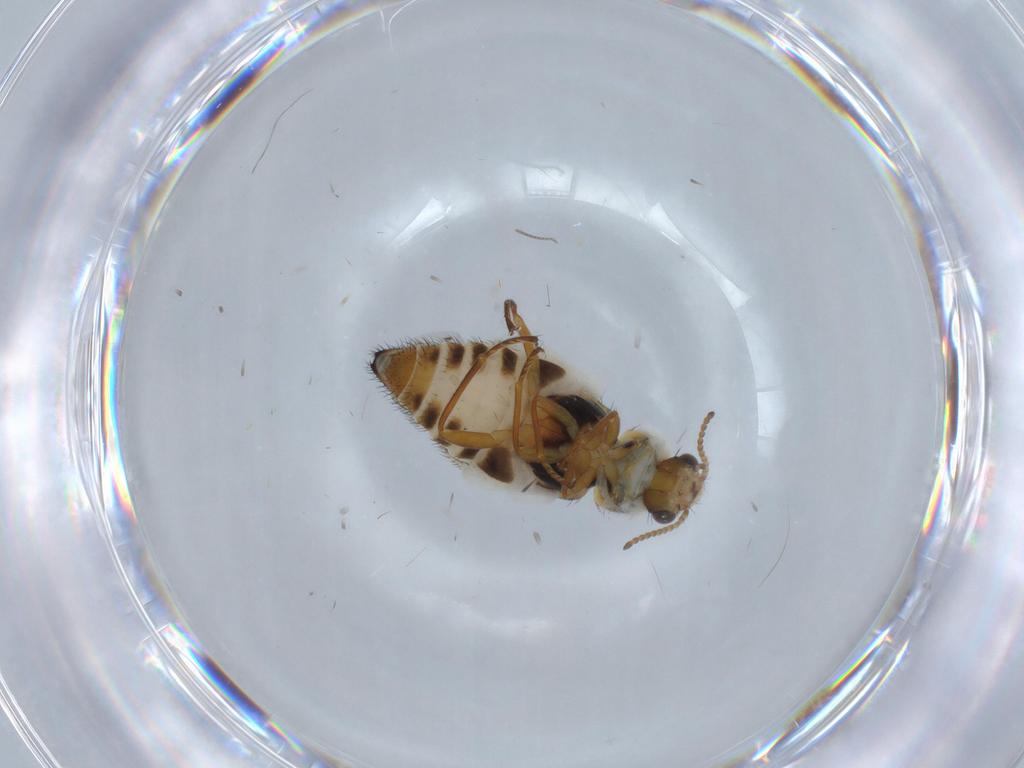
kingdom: Animalia
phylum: Arthropoda
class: Insecta
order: Coleoptera
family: Melyridae
